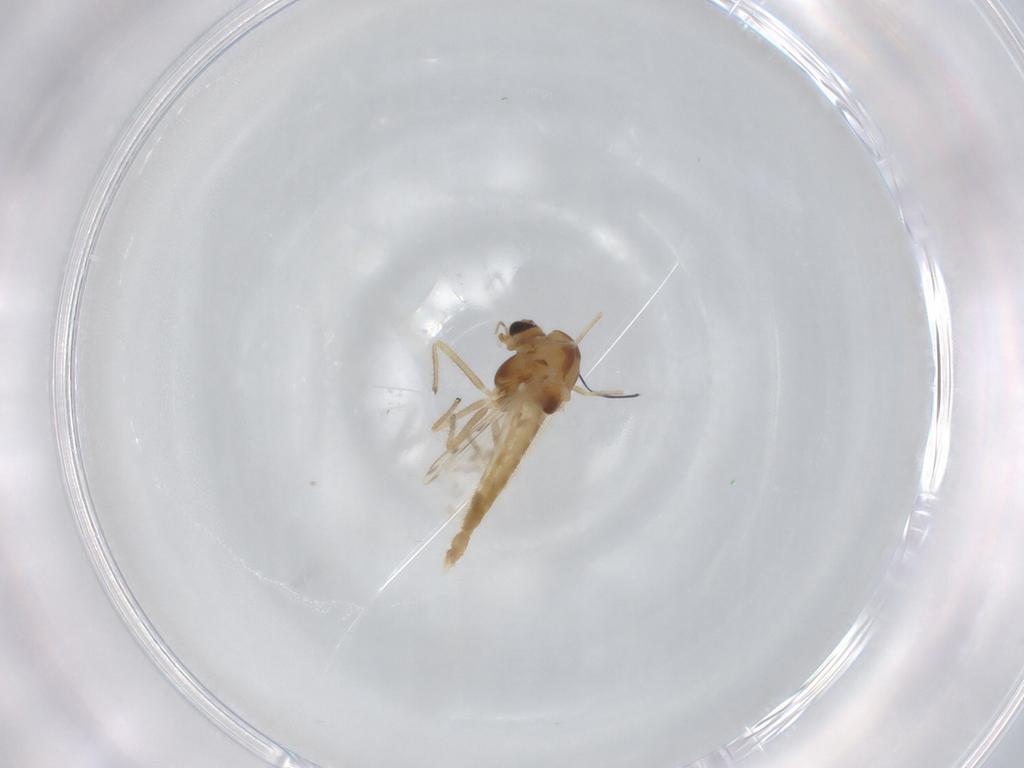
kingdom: Animalia
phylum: Arthropoda
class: Insecta
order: Diptera
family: Chironomidae
